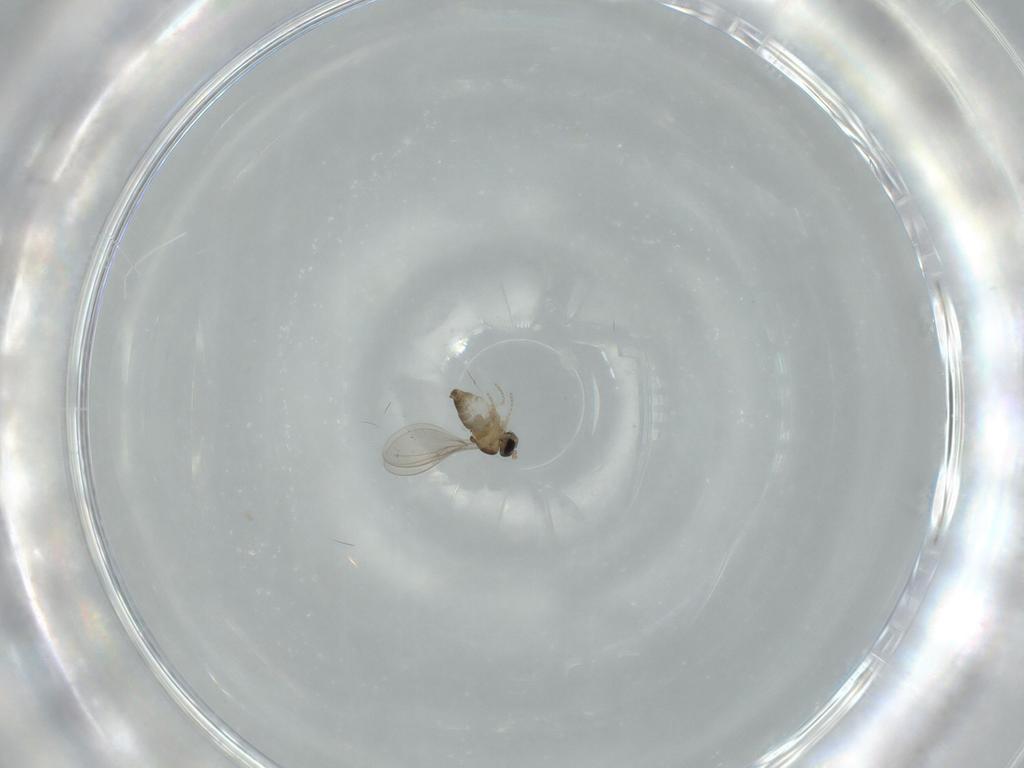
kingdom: Animalia
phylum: Arthropoda
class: Insecta
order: Diptera
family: Cecidomyiidae
